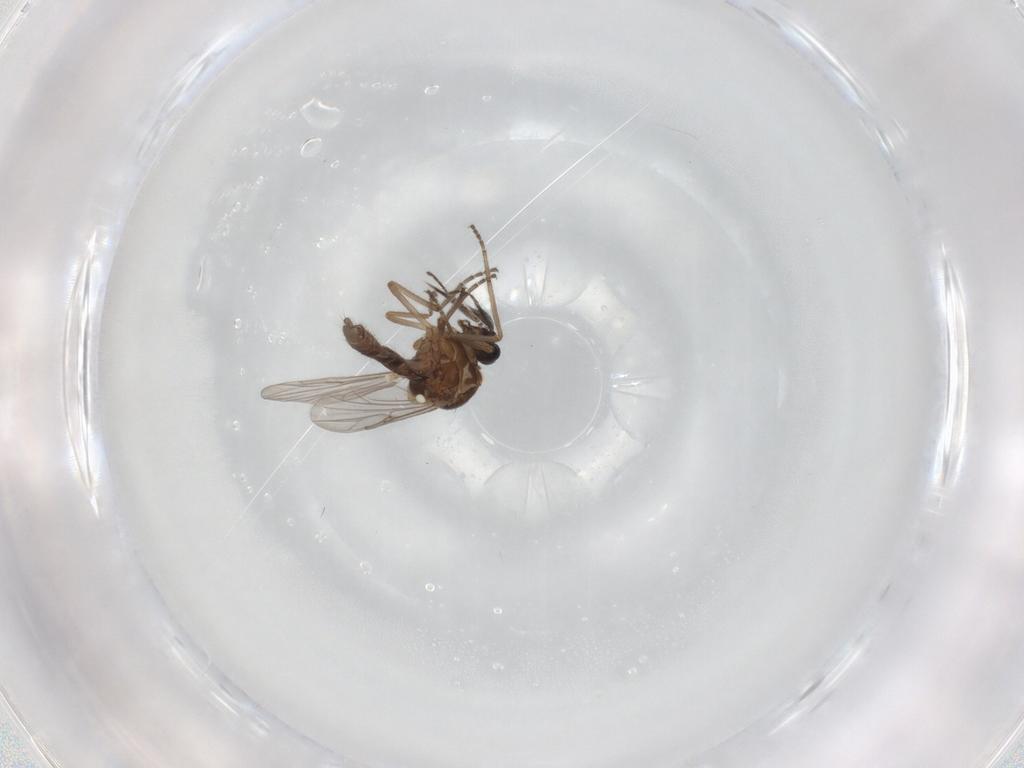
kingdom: Animalia
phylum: Arthropoda
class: Insecta
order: Diptera
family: Ceratopogonidae
